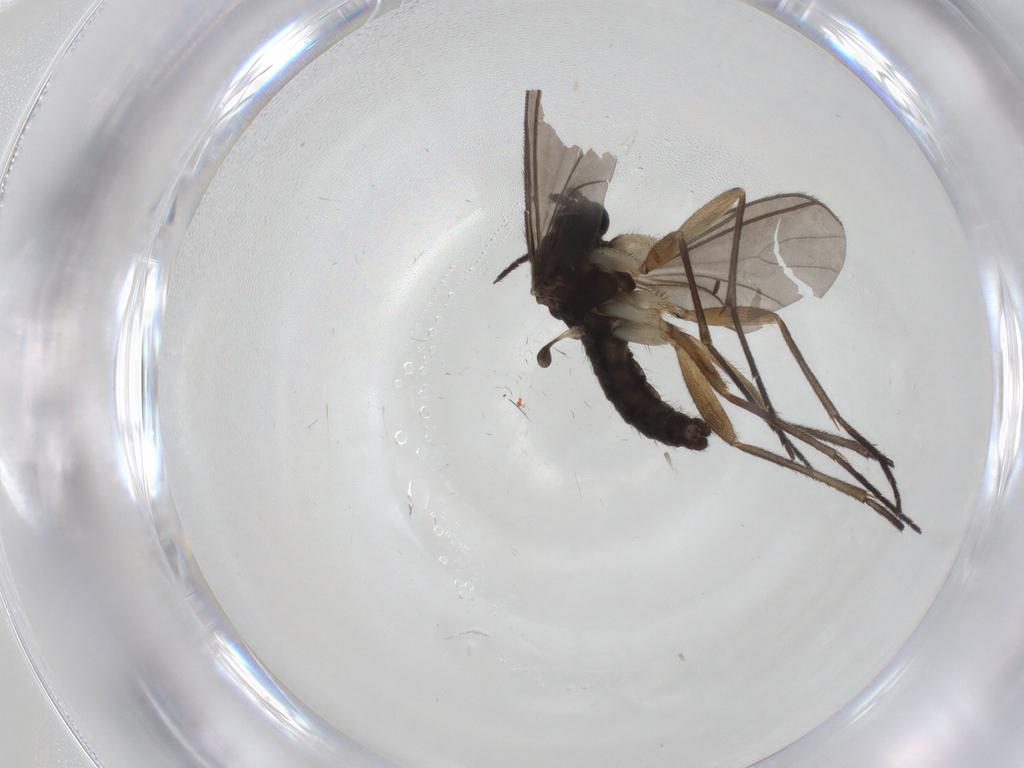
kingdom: Animalia
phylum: Arthropoda
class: Insecta
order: Diptera
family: Sciaridae
